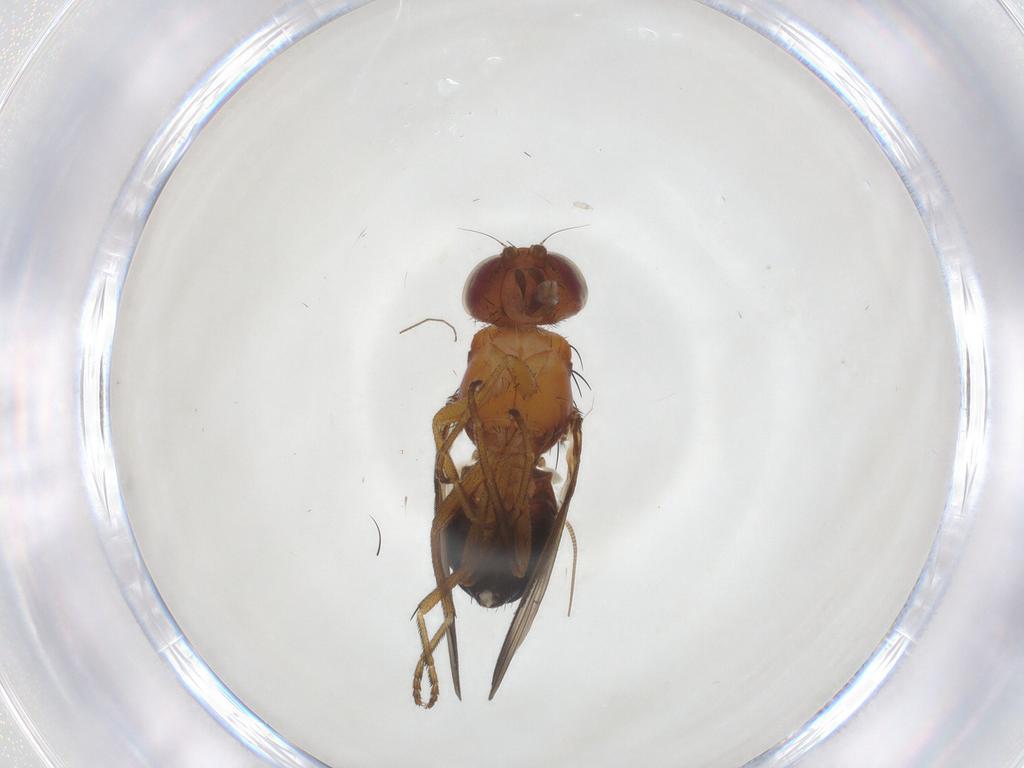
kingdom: Animalia
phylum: Arthropoda
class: Insecta
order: Diptera
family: Piophilidae
